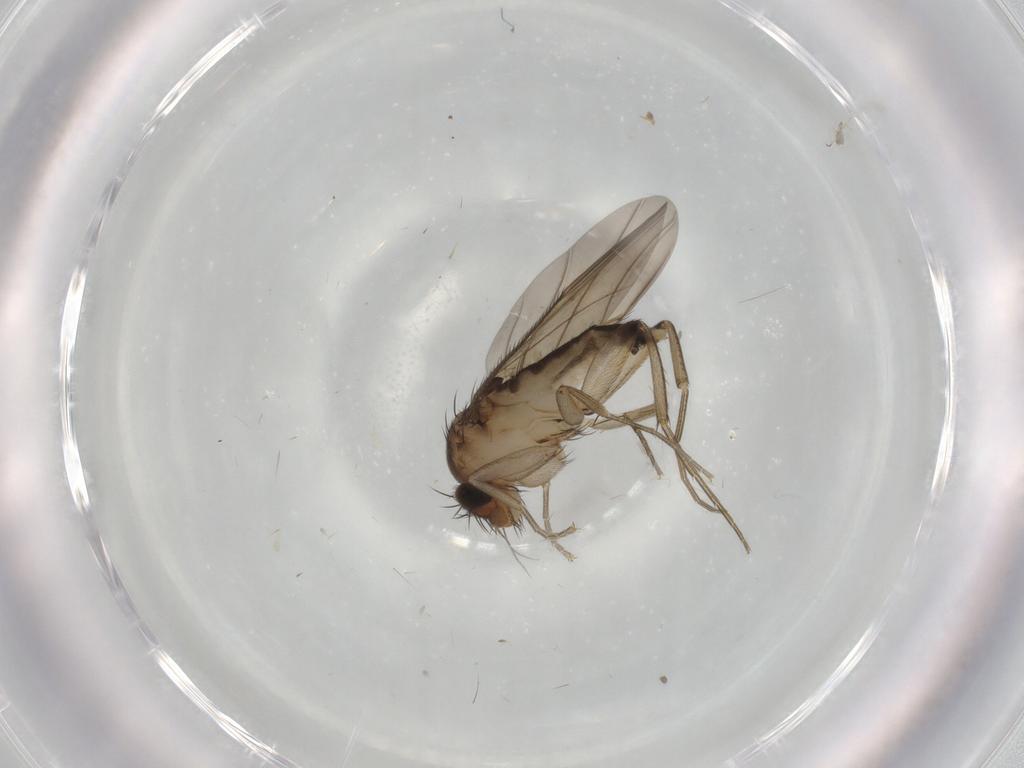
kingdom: Animalia
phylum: Arthropoda
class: Insecta
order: Diptera
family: Phoridae
